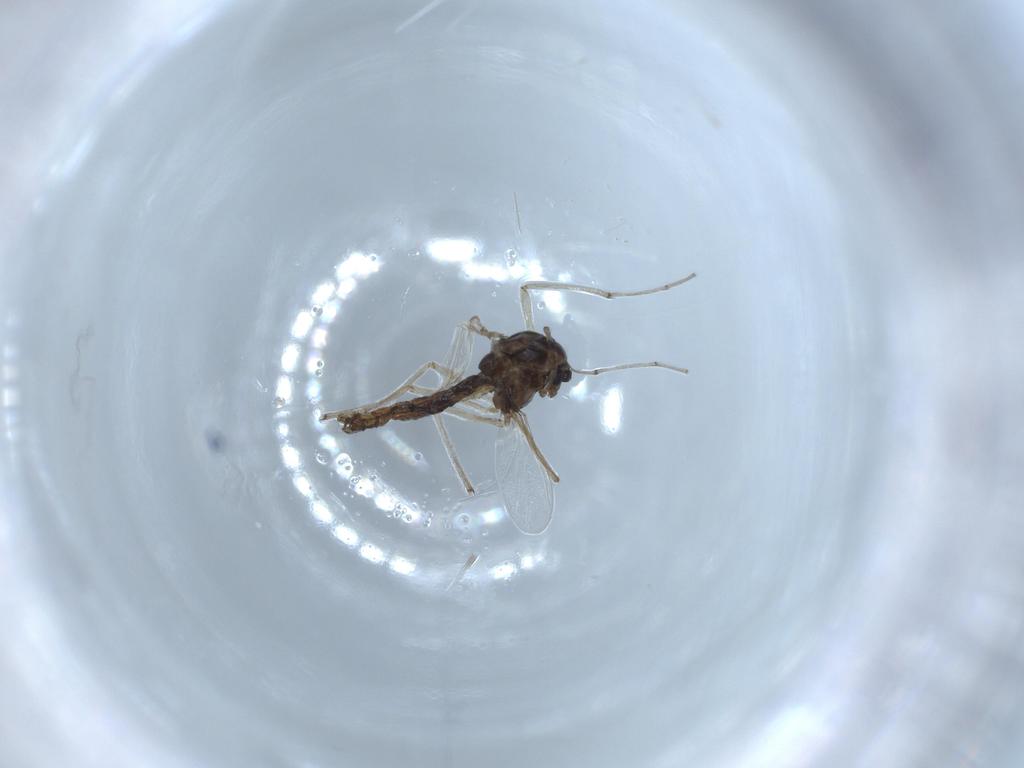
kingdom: Animalia
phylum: Arthropoda
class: Insecta
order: Diptera
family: Chironomidae
